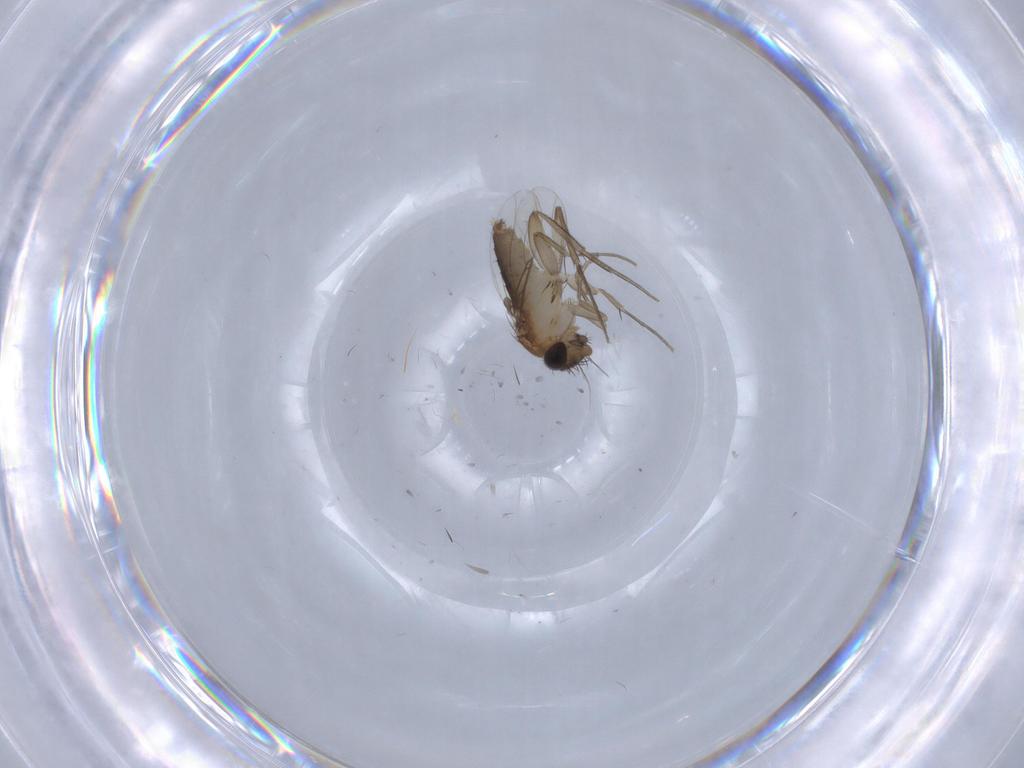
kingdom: Animalia
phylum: Arthropoda
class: Insecta
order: Diptera
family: Phoridae
